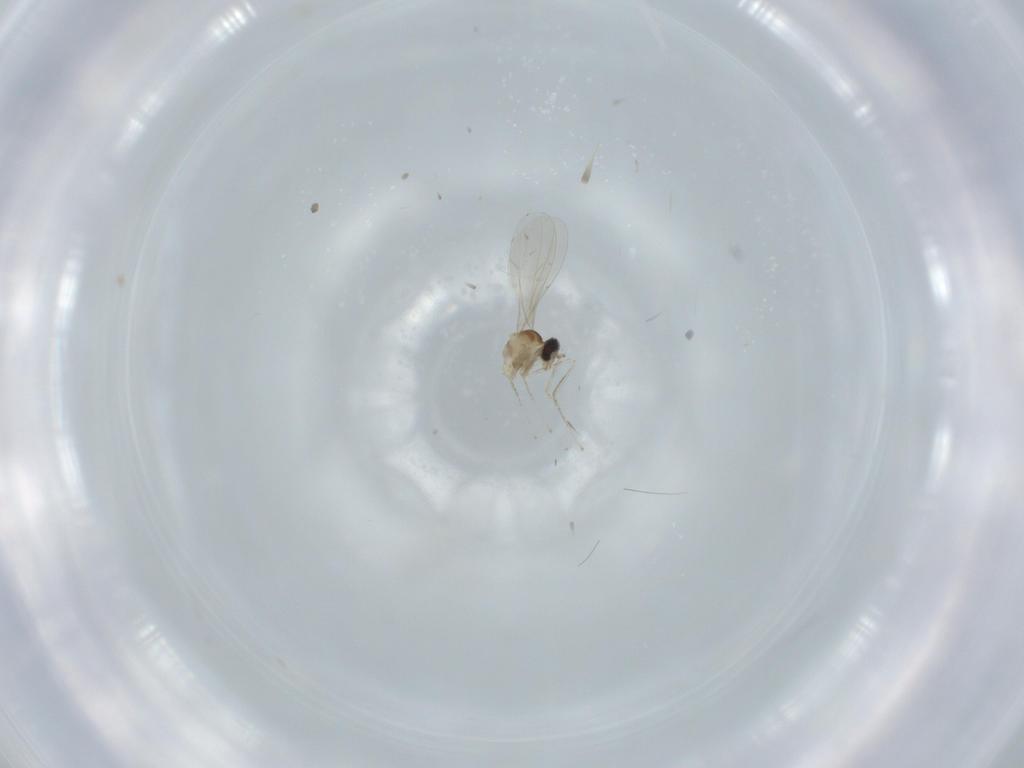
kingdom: Animalia
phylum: Arthropoda
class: Insecta
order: Diptera
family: Cecidomyiidae
